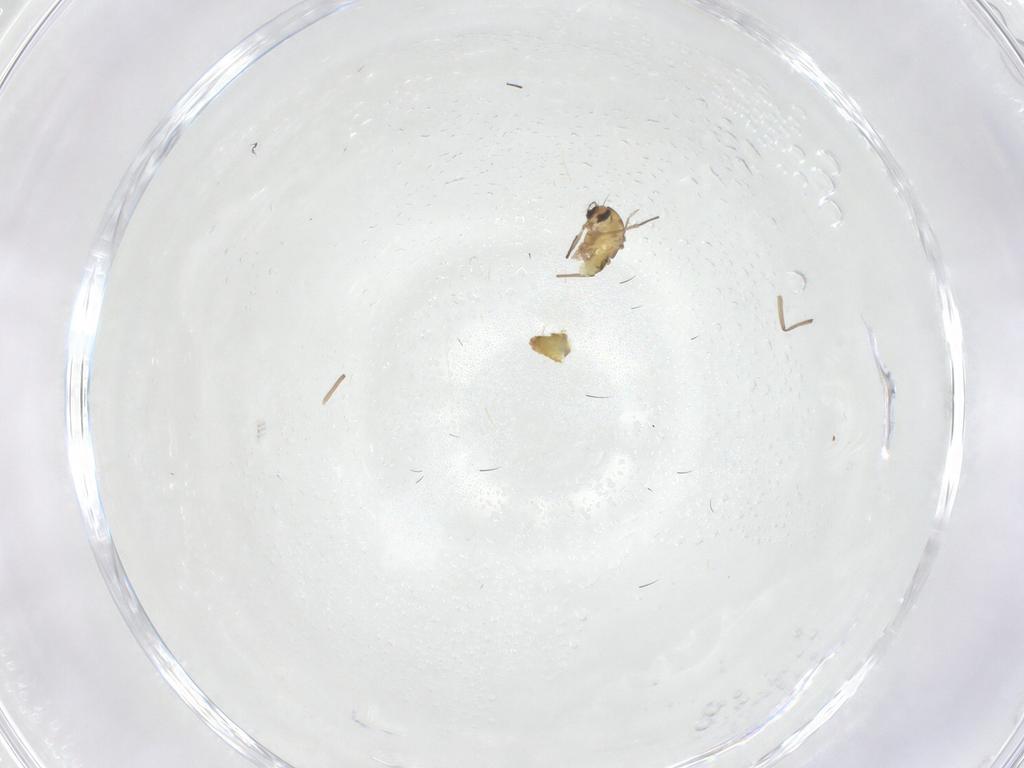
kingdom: Animalia
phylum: Arthropoda
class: Insecta
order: Diptera
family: Chironomidae
